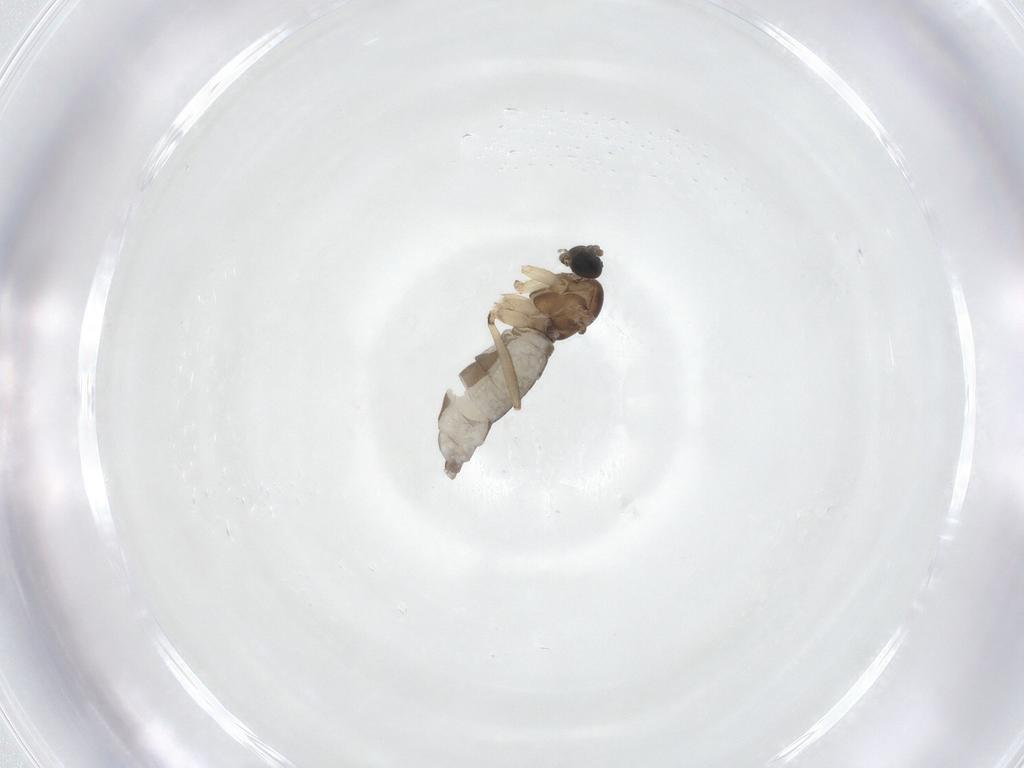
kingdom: Animalia
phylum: Arthropoda
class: Insecta
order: Diptera
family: Sciaridae
